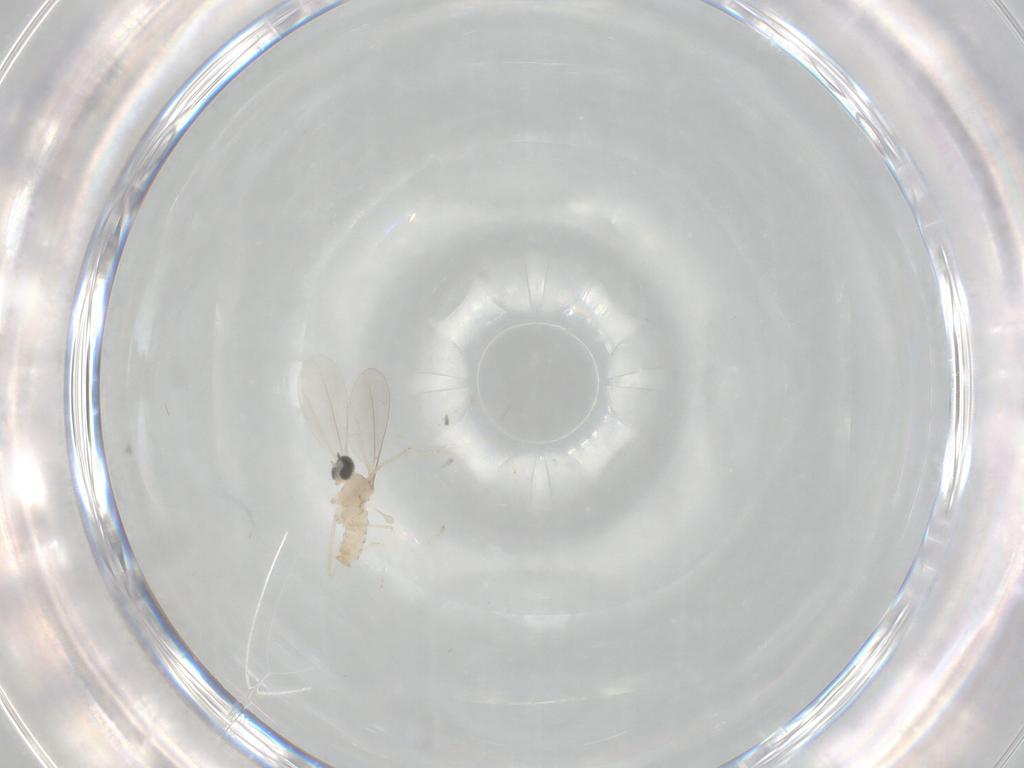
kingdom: Animalia
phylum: Arthropoda
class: Insecta
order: Diptera
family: Cecidomyiidae
